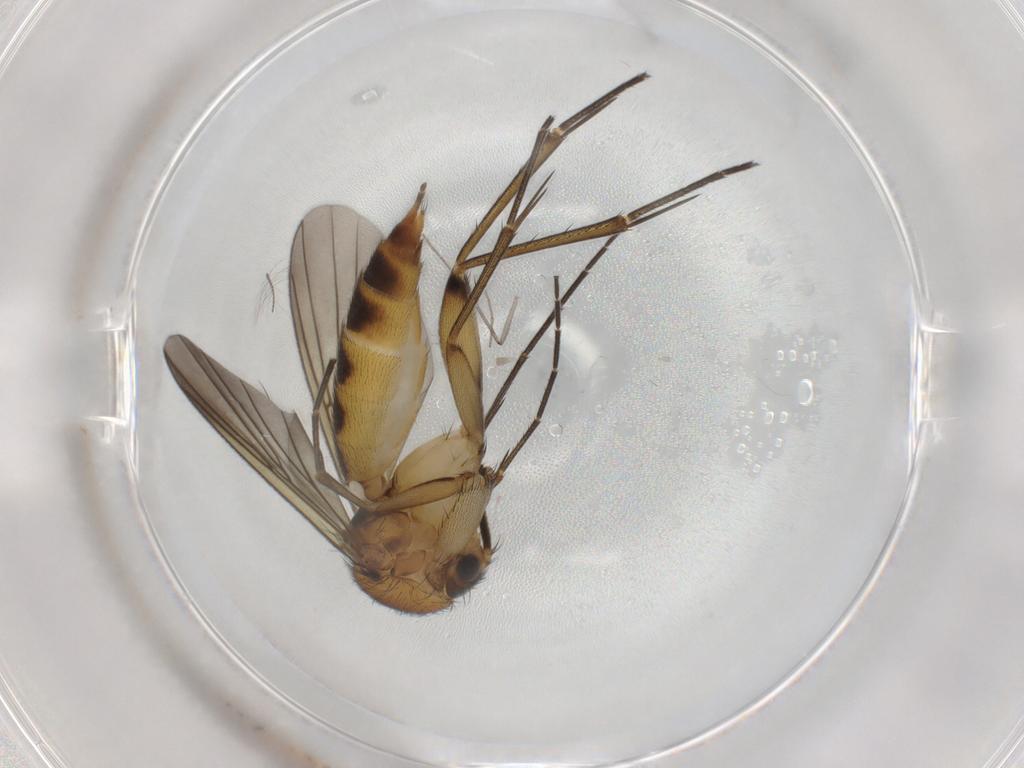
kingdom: Animalia
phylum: Arthropoda
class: Insecta
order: Diptera
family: Mycetophilidae
